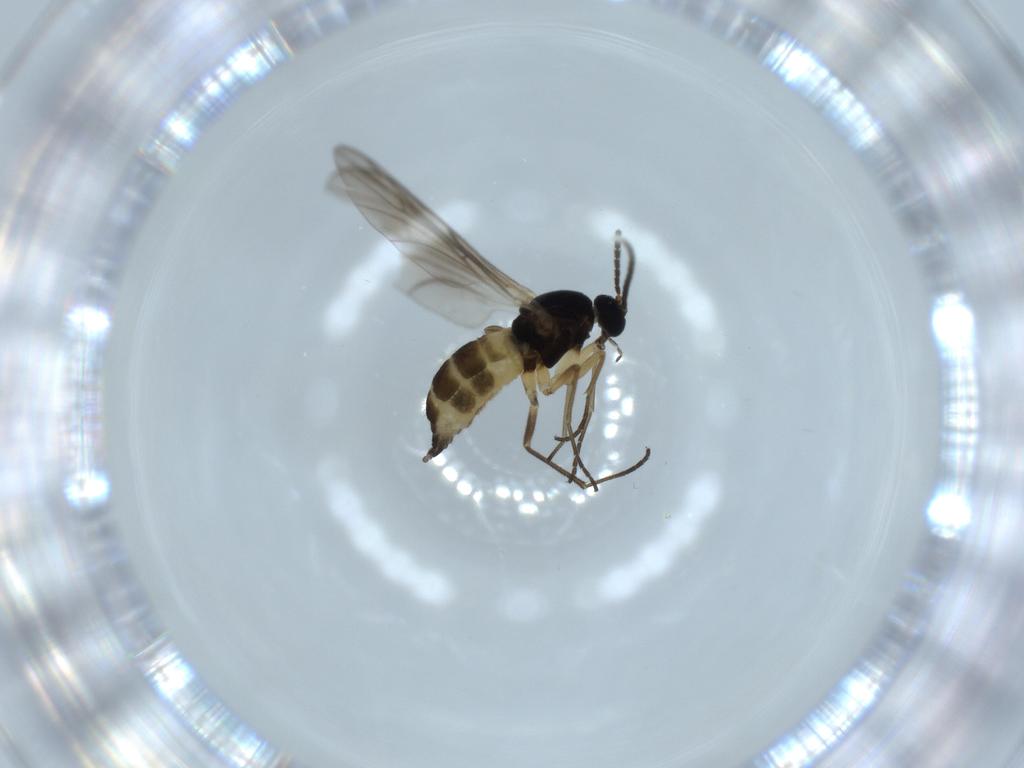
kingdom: Animalia
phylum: Arthropoda
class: Insecta
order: Diptera
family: Sciaridae
